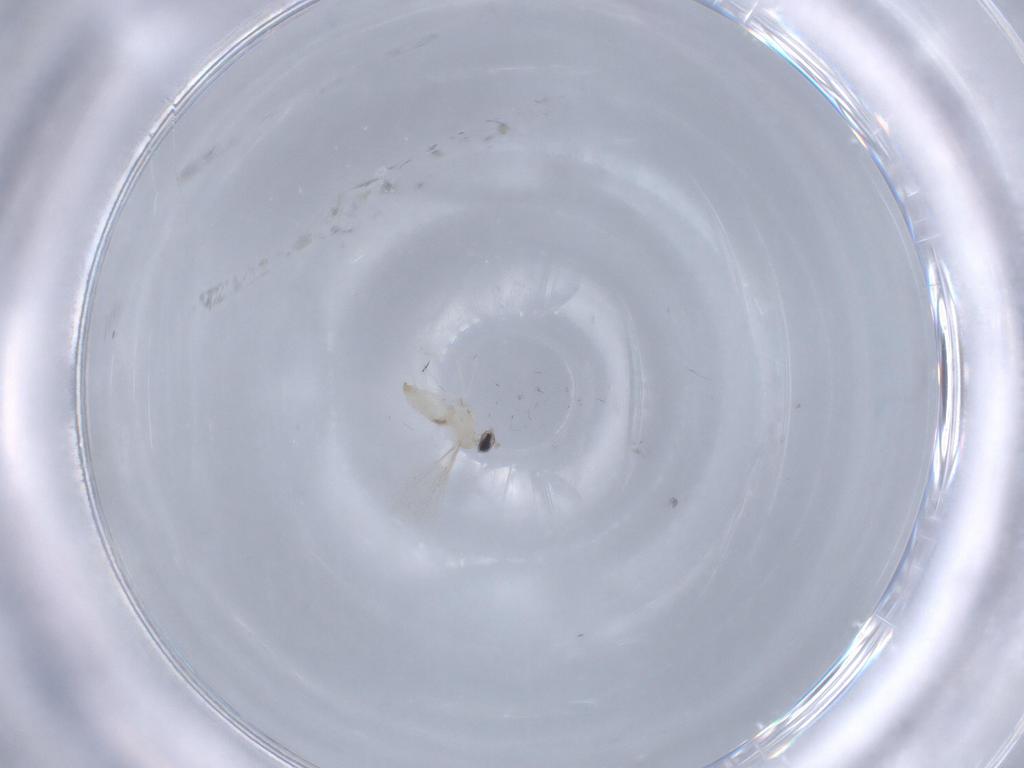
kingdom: Animalia
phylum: Arthropoda
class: Insecta
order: Diptera
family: Cecidomyiidae
